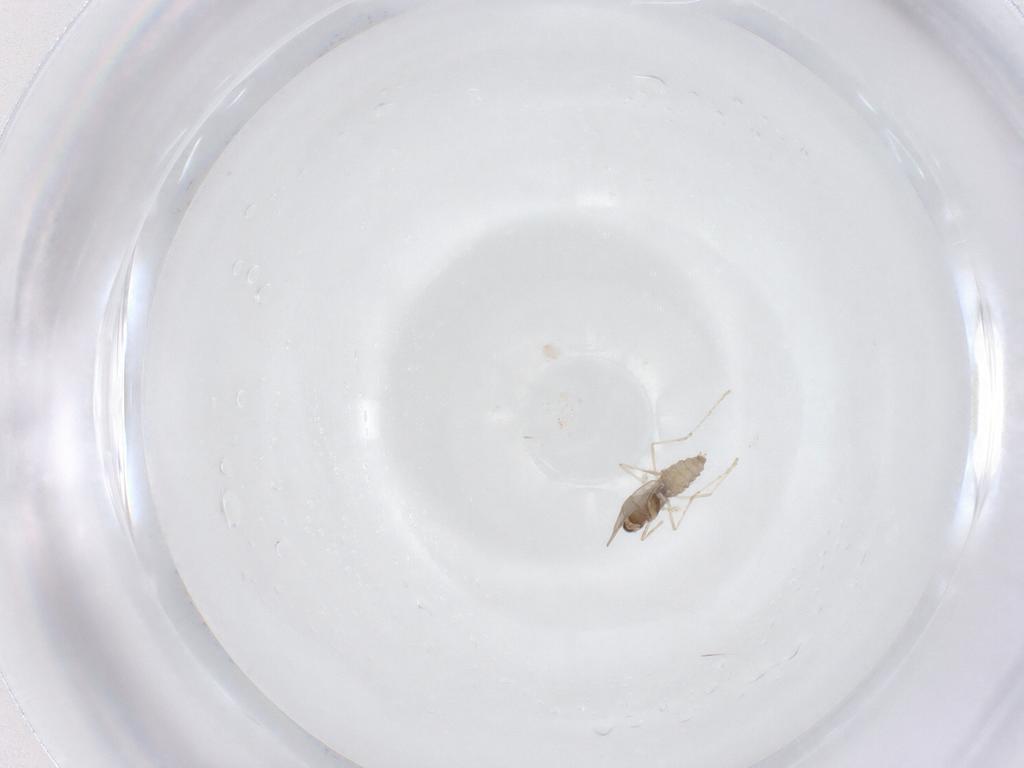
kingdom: Animalia
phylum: Arthropoda
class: Insecta
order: Diptera
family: Cecidomyiidae
